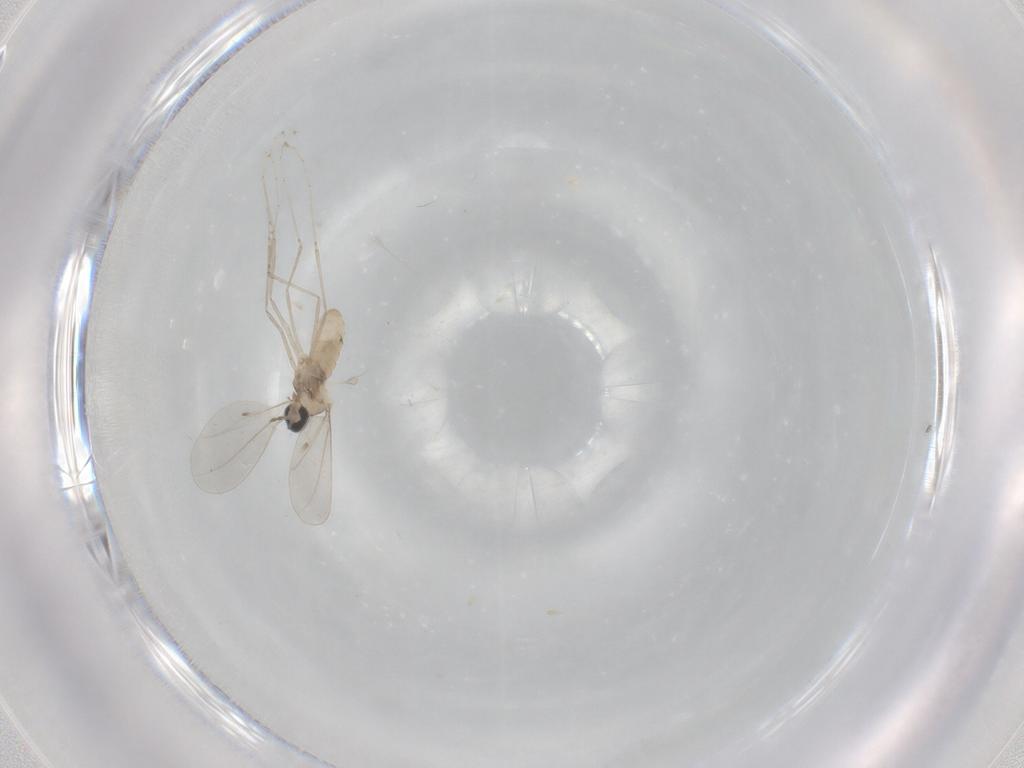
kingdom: Animalia
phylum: Arthropoda
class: Insecta
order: Diptera
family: Cecidomyiidae
